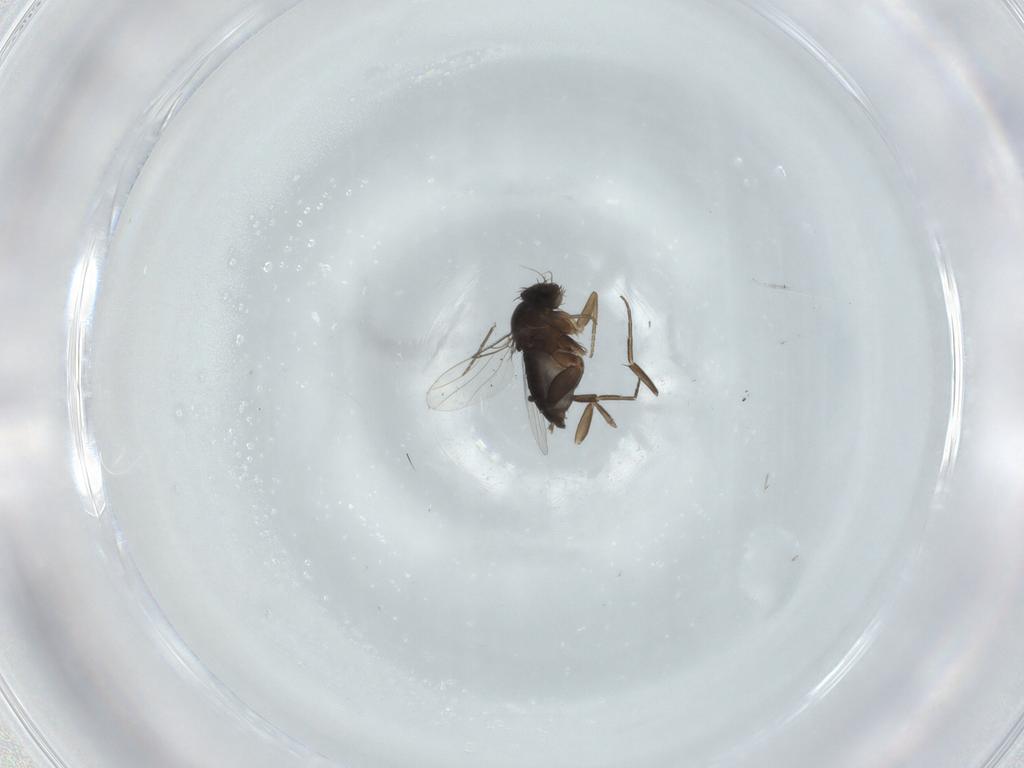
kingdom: Animalia
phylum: Arthropoda
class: Insecta
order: Diptera
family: Phoridae
